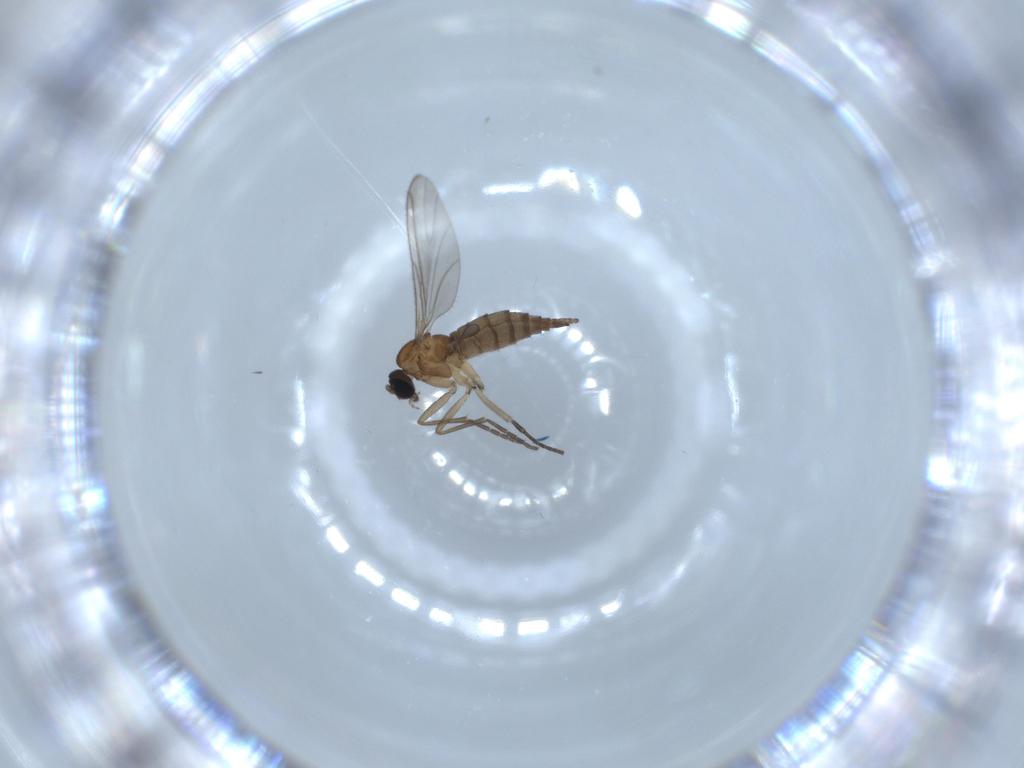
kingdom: Animalia
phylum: Arthropoda
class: Insecta
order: Diptera
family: Sciaridae
